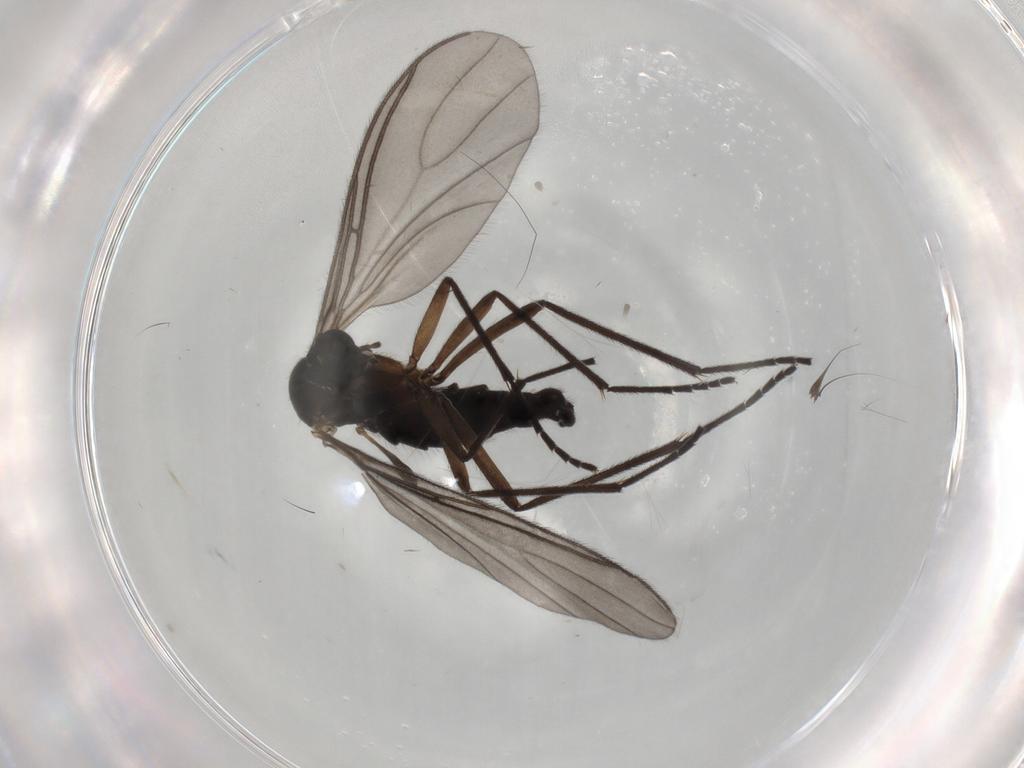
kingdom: Animalia
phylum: Arthropoda
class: Insecta
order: Diptera
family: Sciaridae
